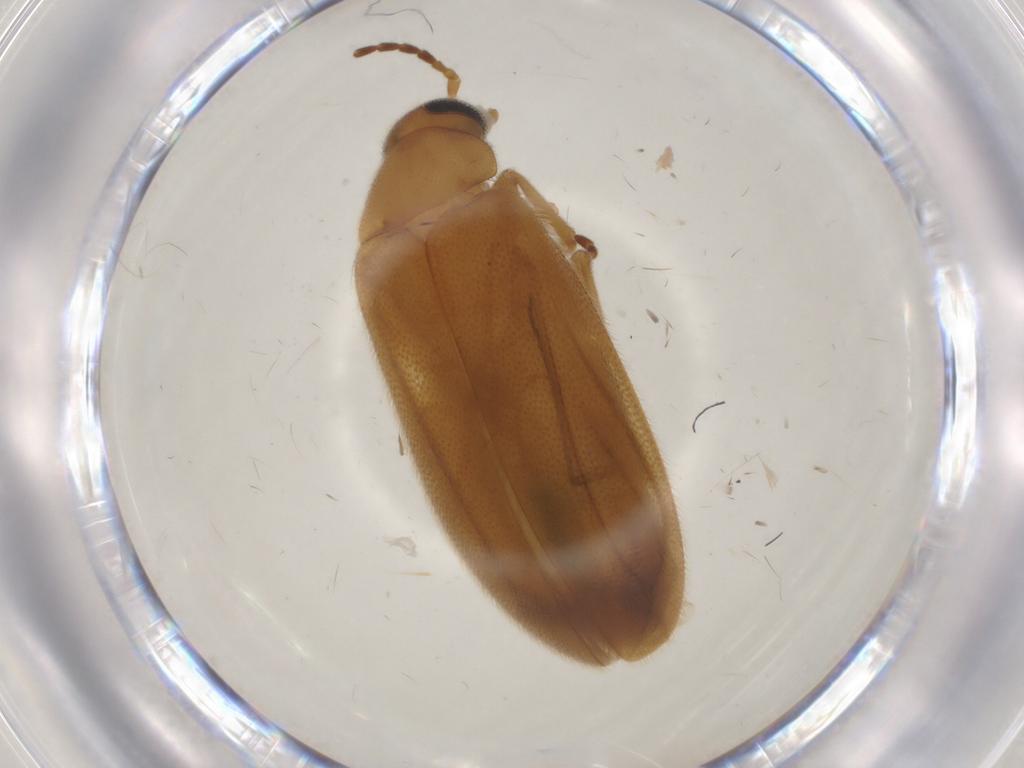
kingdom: Animalia
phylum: Arthropoda
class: Insecta
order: Coleoptera
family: Scraptiidae
